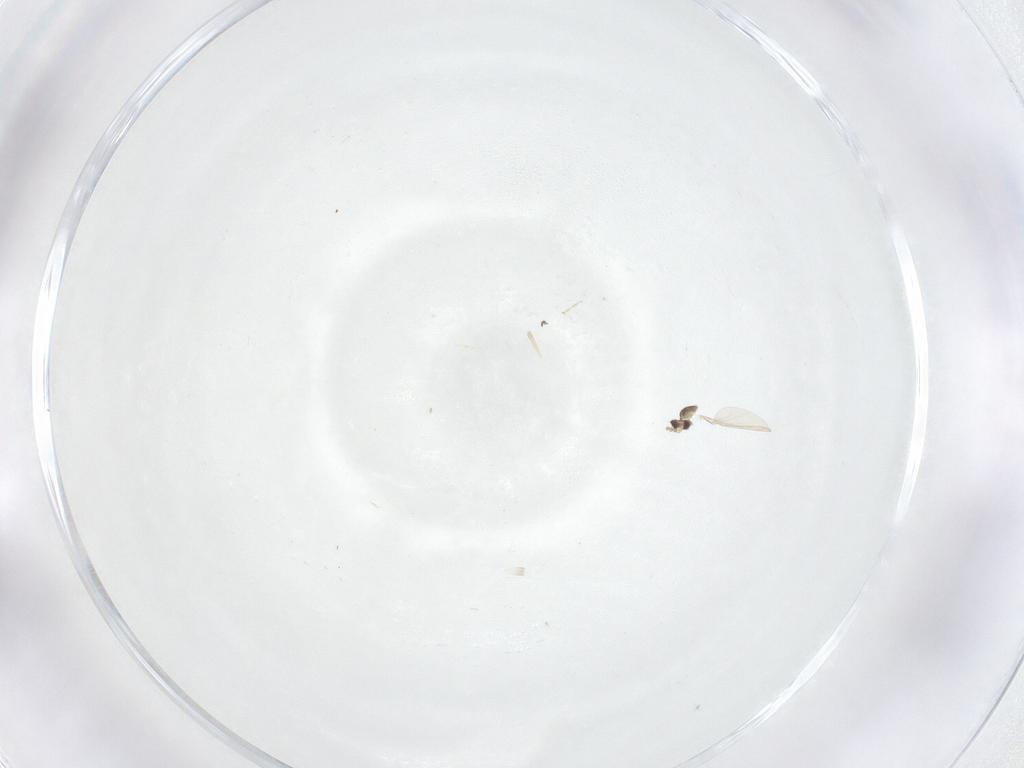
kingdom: Animalia
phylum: Arthropoda
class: Insecta
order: Diptera
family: Cecidomyiidae
